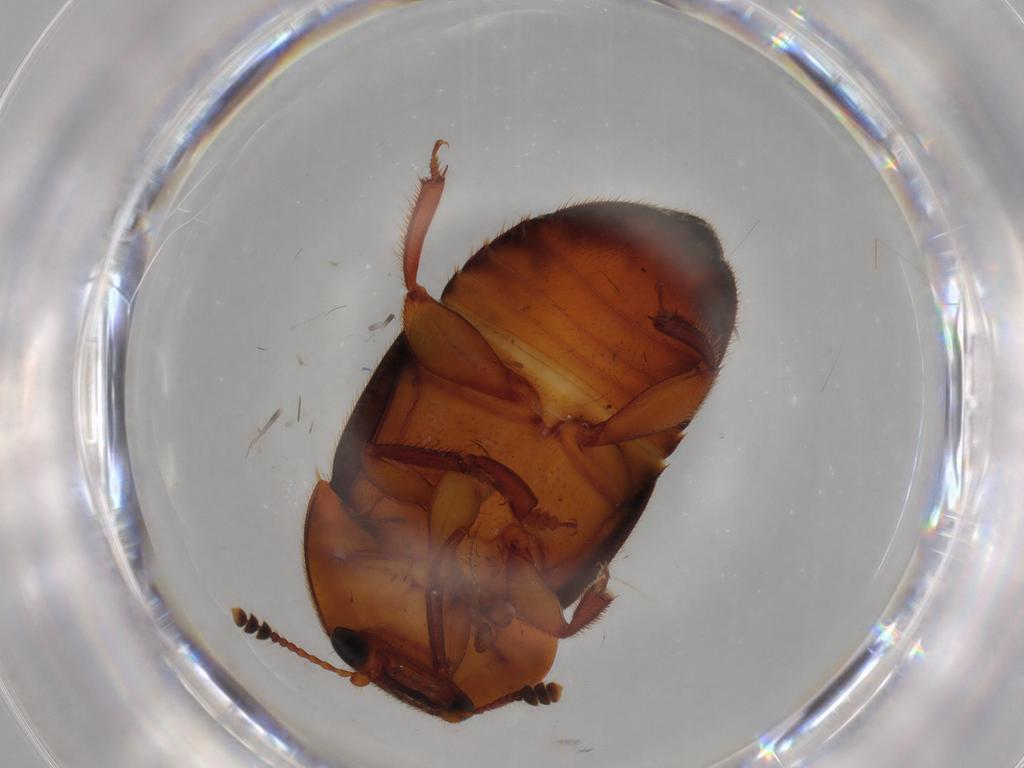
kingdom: Animalia
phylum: Arthropoda
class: Insecta
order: Coleoptera
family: Nitidulidae
